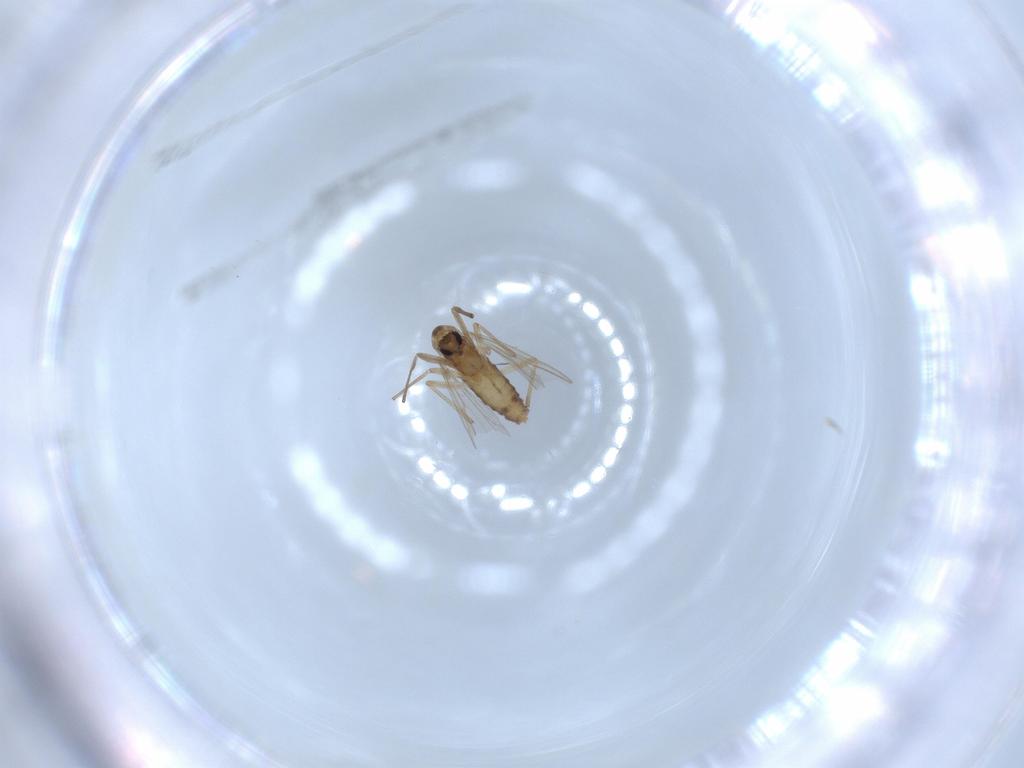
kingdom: Animalia
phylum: Arthropoda
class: Insecta
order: Diptera
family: Chironomidae
